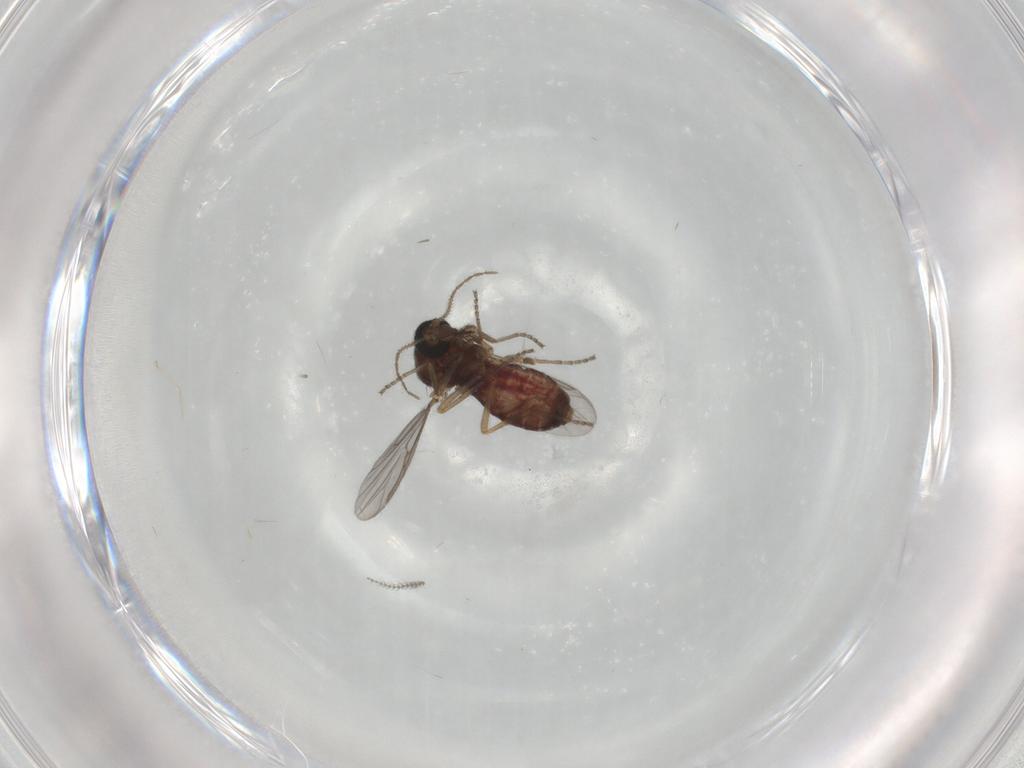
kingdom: Animalia
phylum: Arthropoda
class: Insecta
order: Diptera
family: Ceratopogonidae
